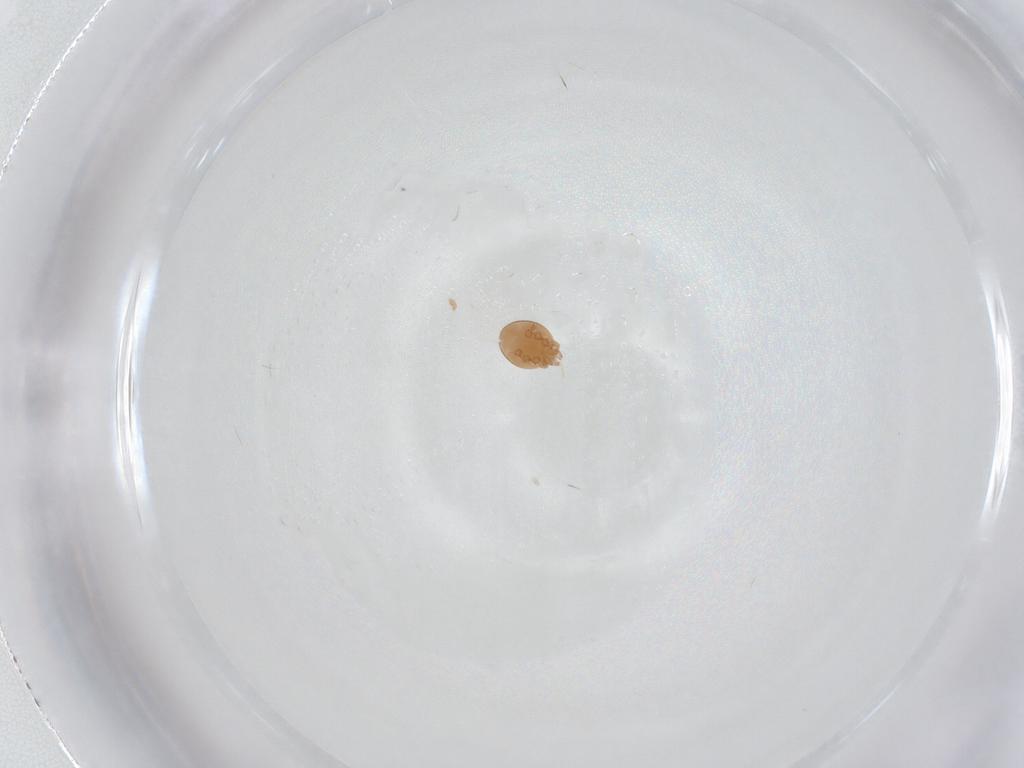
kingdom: Animalia
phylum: Arthropoda
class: Arachnida
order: Mesostigmata
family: Trematuridae
